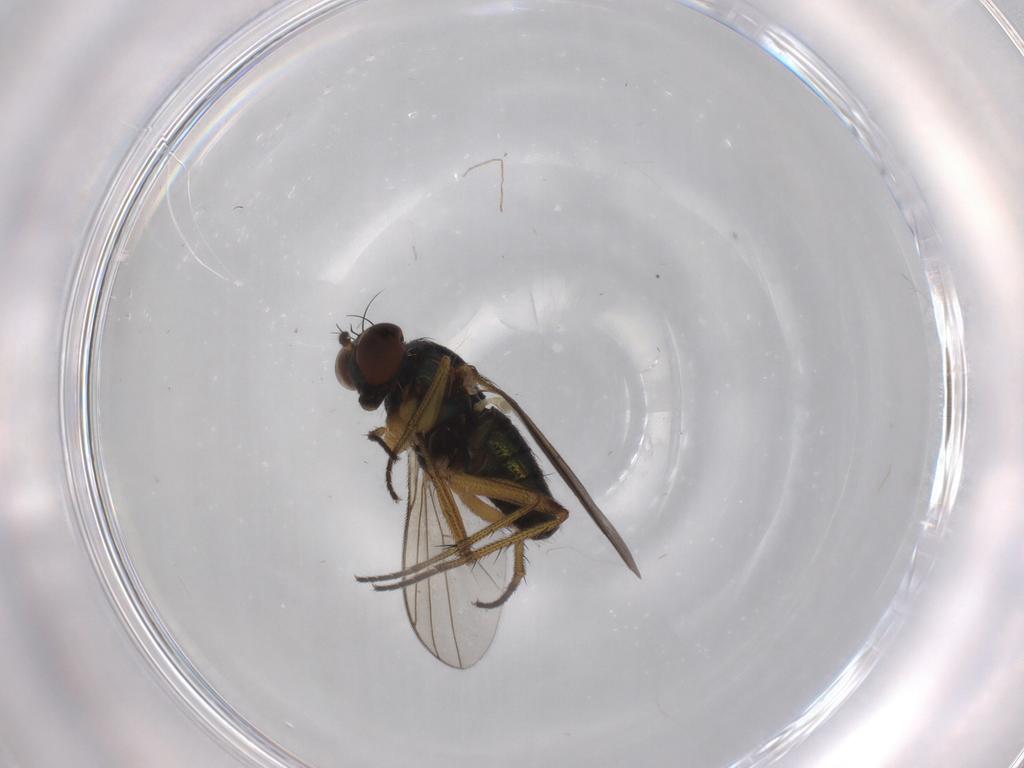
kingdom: Animalia
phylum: Arthropoda
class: Insecta
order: Diptera
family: Dolichopodidae
